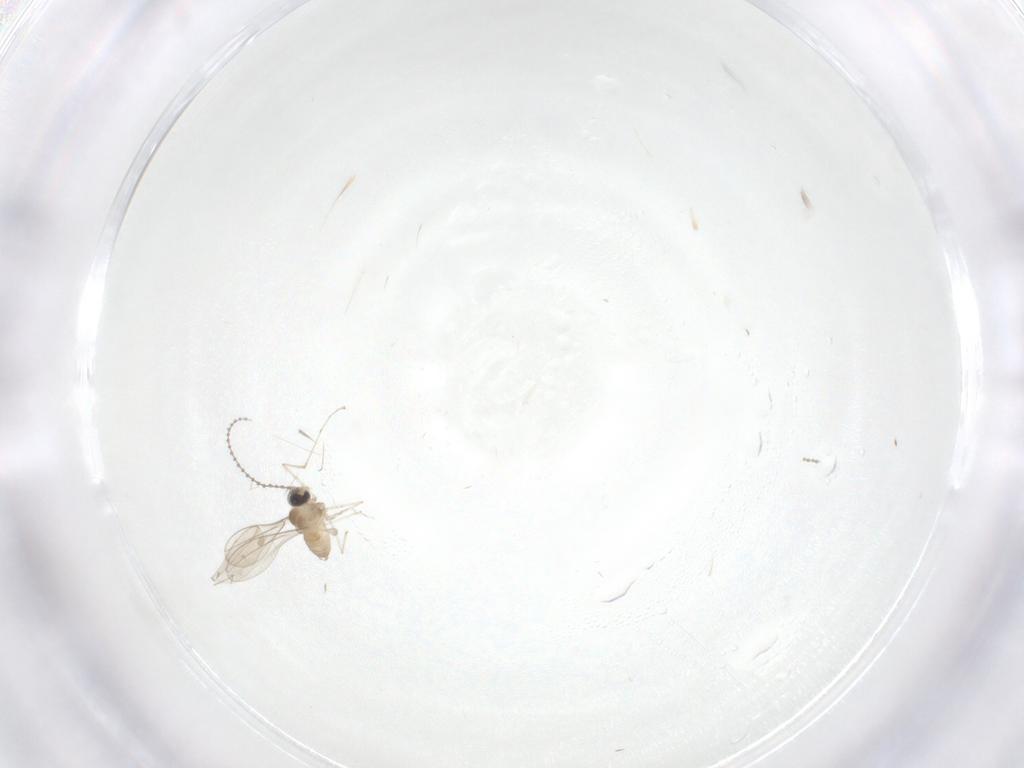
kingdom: Animalia
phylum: Arthropoda
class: Insecta
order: Diptera
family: Cecidomyiidae
